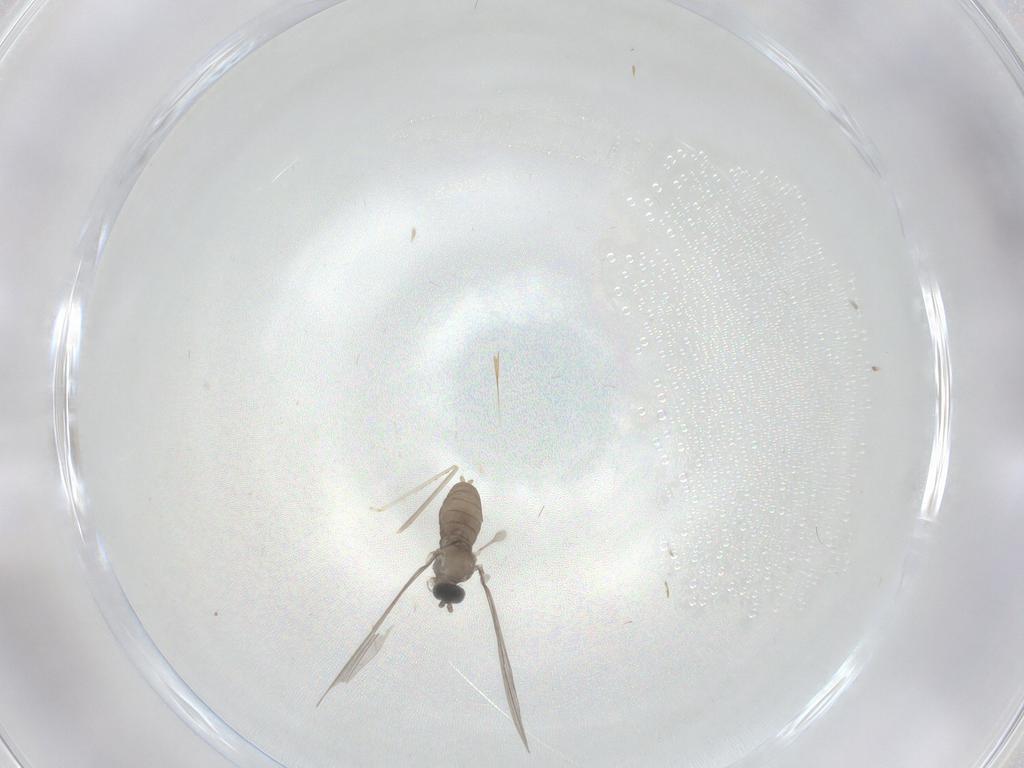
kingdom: Animalia
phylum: Arthropoda
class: Insecta
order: Diptera
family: Cecidomyiidae
